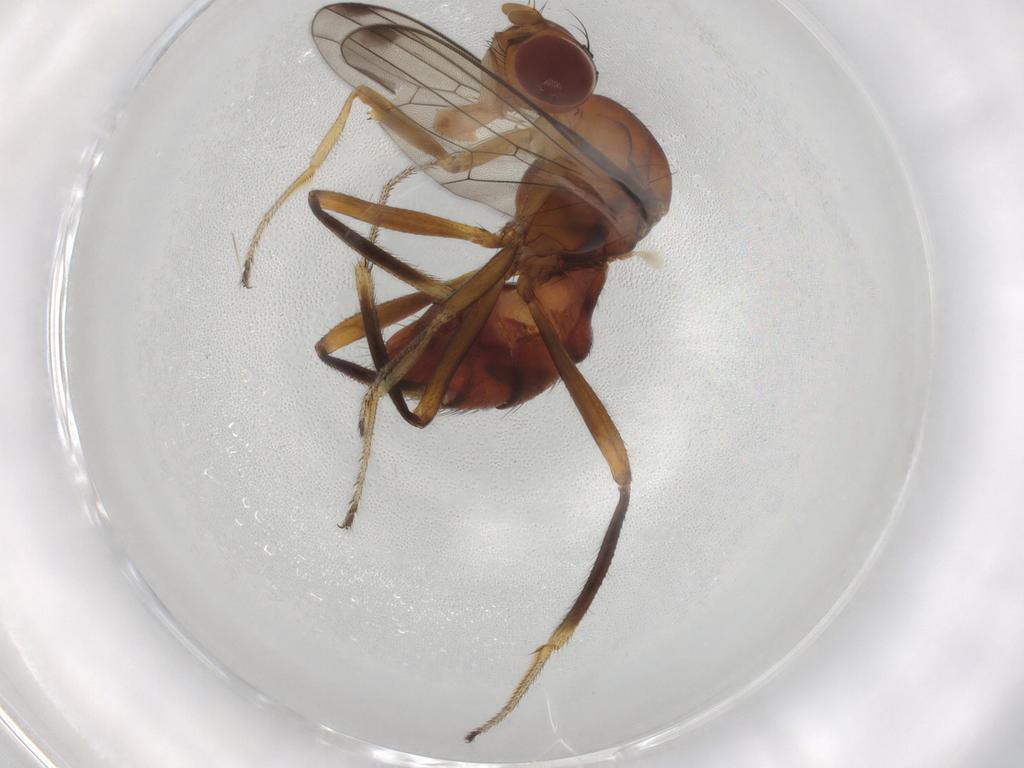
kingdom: Animalia
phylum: Arthropoda
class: Insecta
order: Diptera
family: Sepsidae
